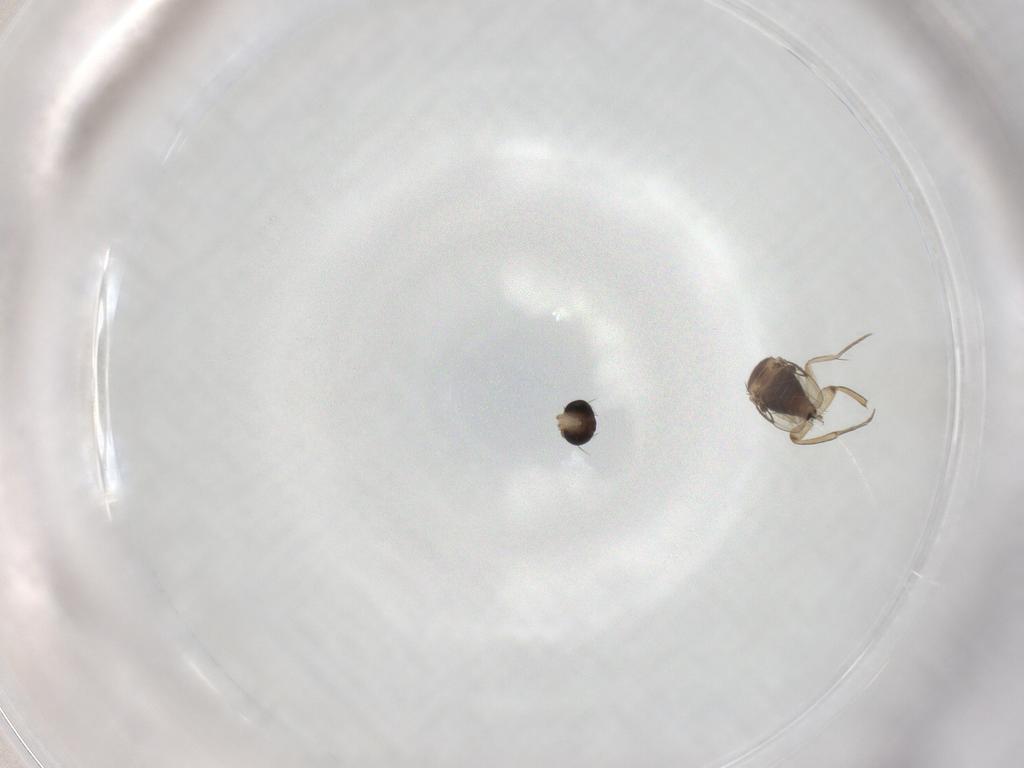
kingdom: Animalia
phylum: Arthropoda
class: Insecta
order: Diptera
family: Phoridae
